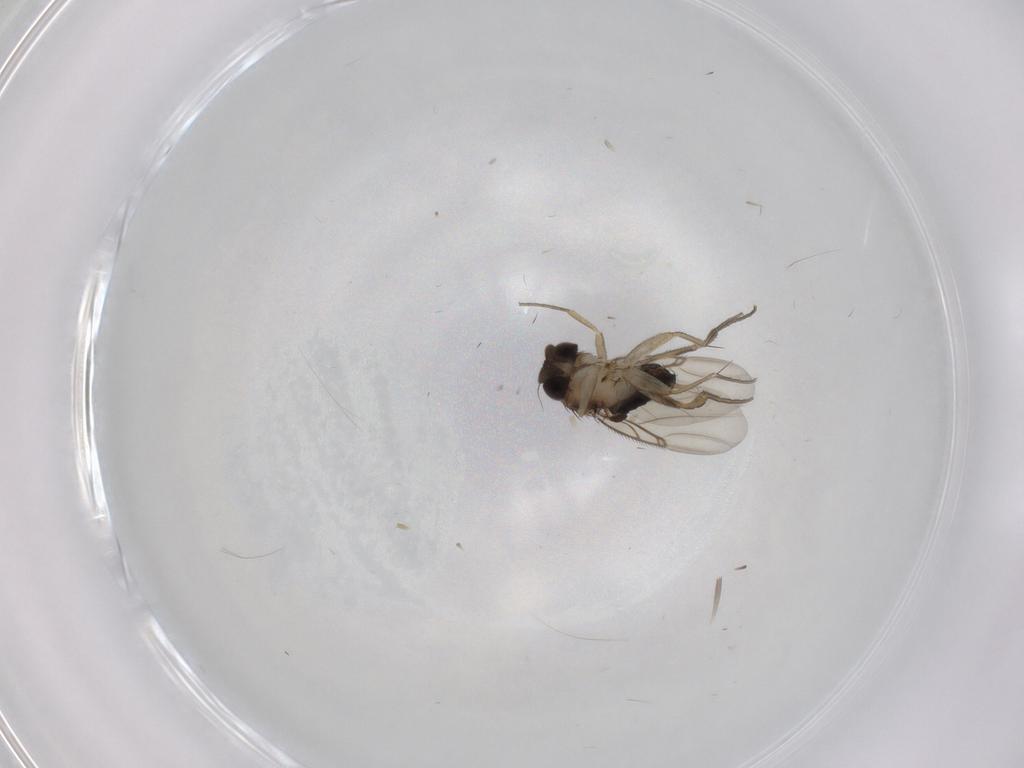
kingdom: Animalia
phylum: Arthropoda
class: Insecta
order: Diptera
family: Phoridae
